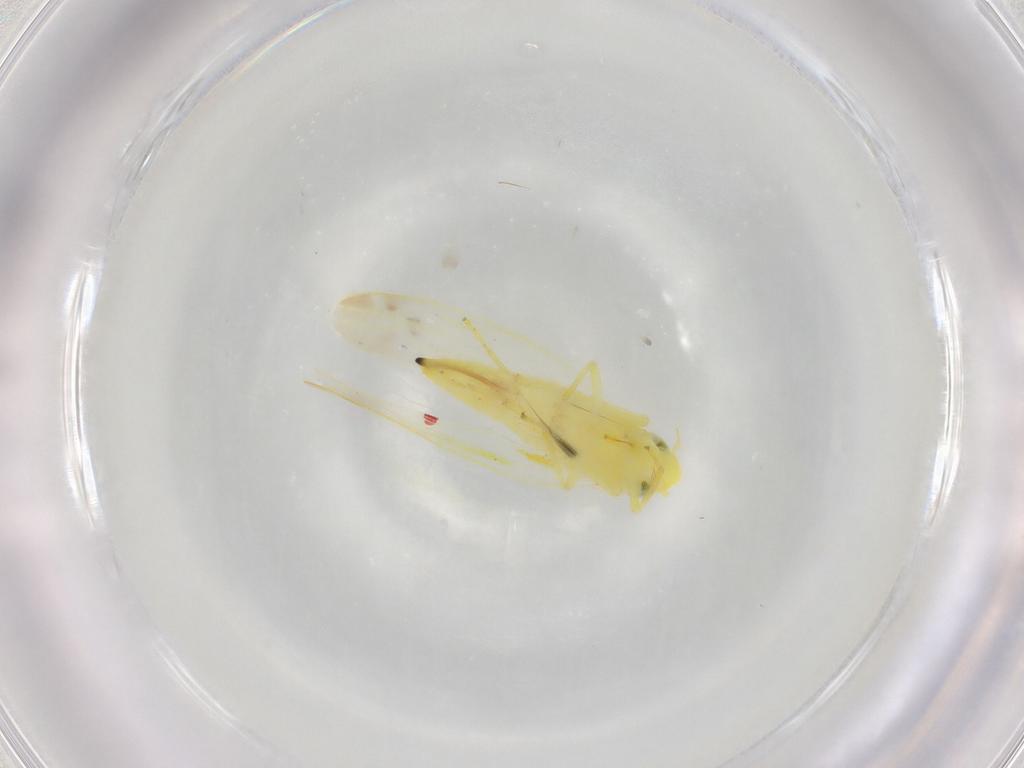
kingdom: Animalia
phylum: Arthropoda
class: Insecta
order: Hemiptera
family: Cicadellidae
